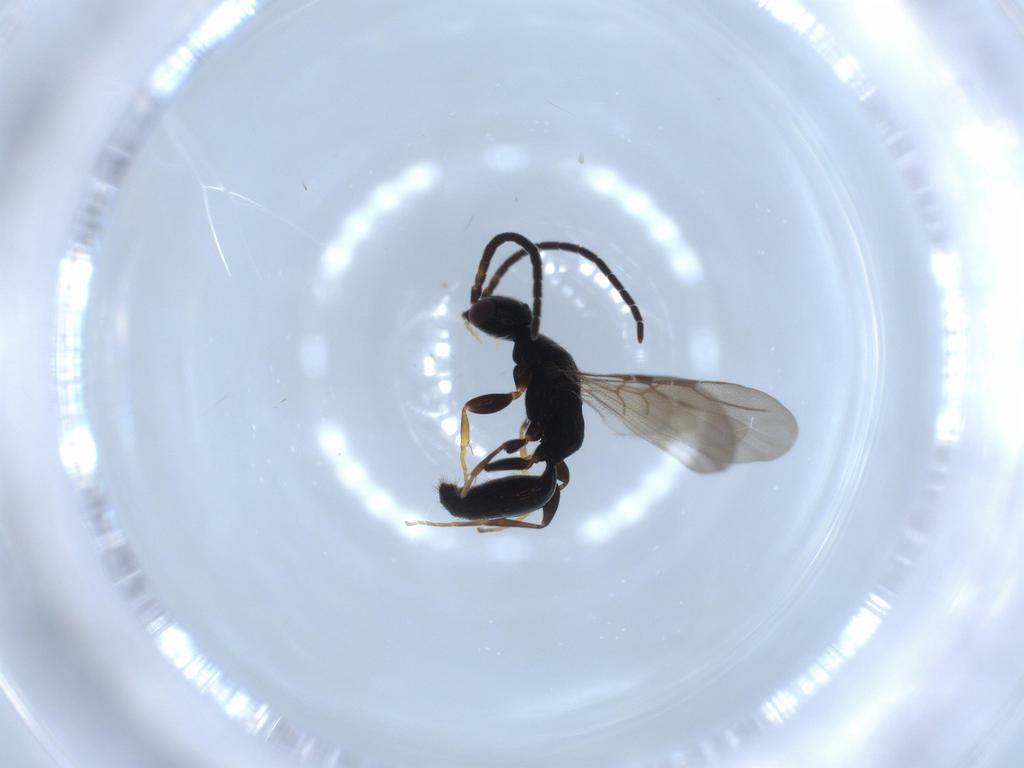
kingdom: Animalia
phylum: Arthropoda
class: Insecta
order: Hymenoptera
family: Bethylidae
